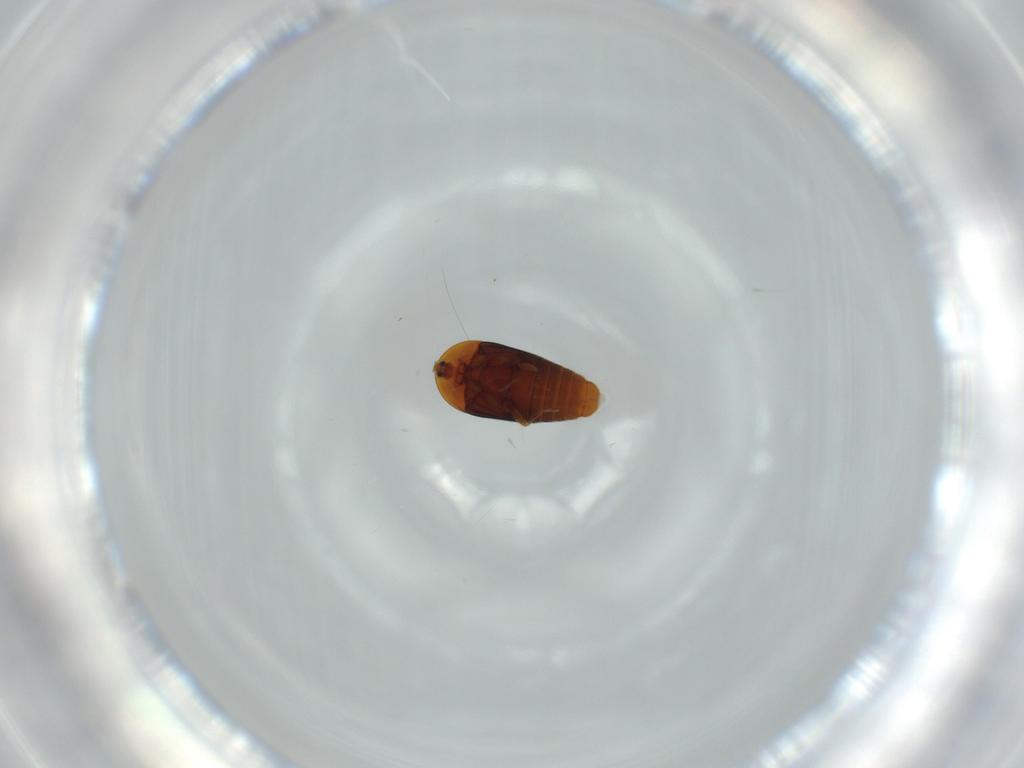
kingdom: Animalia
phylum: Arthropoda
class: Insecta
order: Coleoptera
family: Corylophidae
